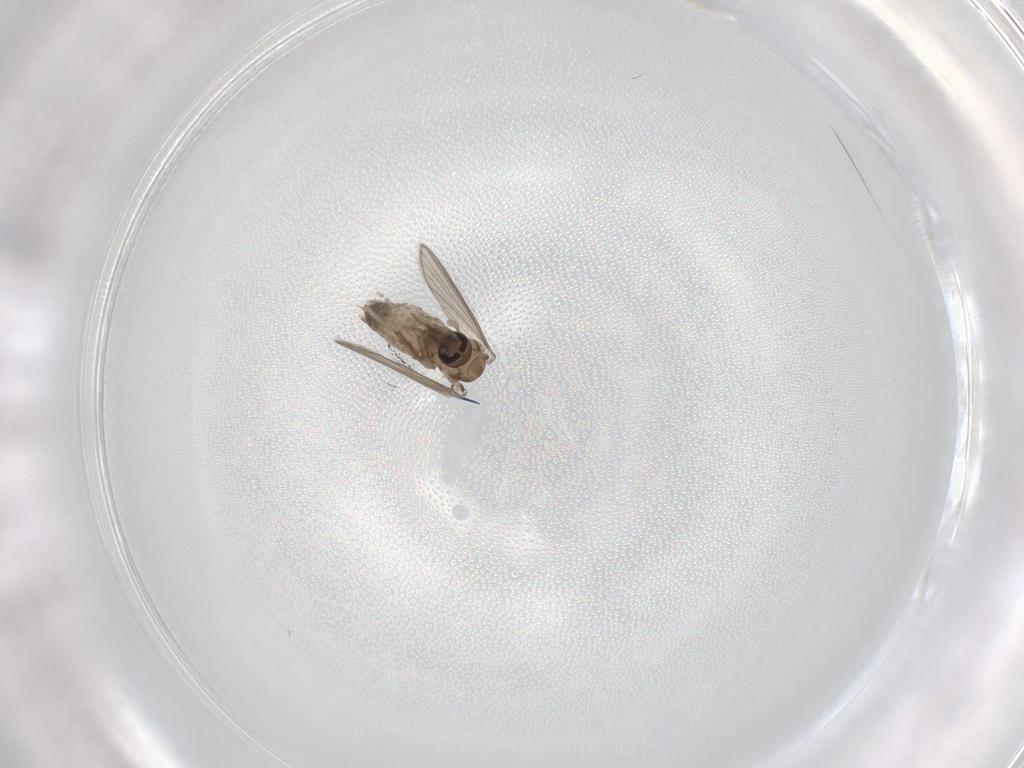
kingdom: Animalia
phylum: Arthropoda
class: Insecta
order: Diptera
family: Psychodidae
